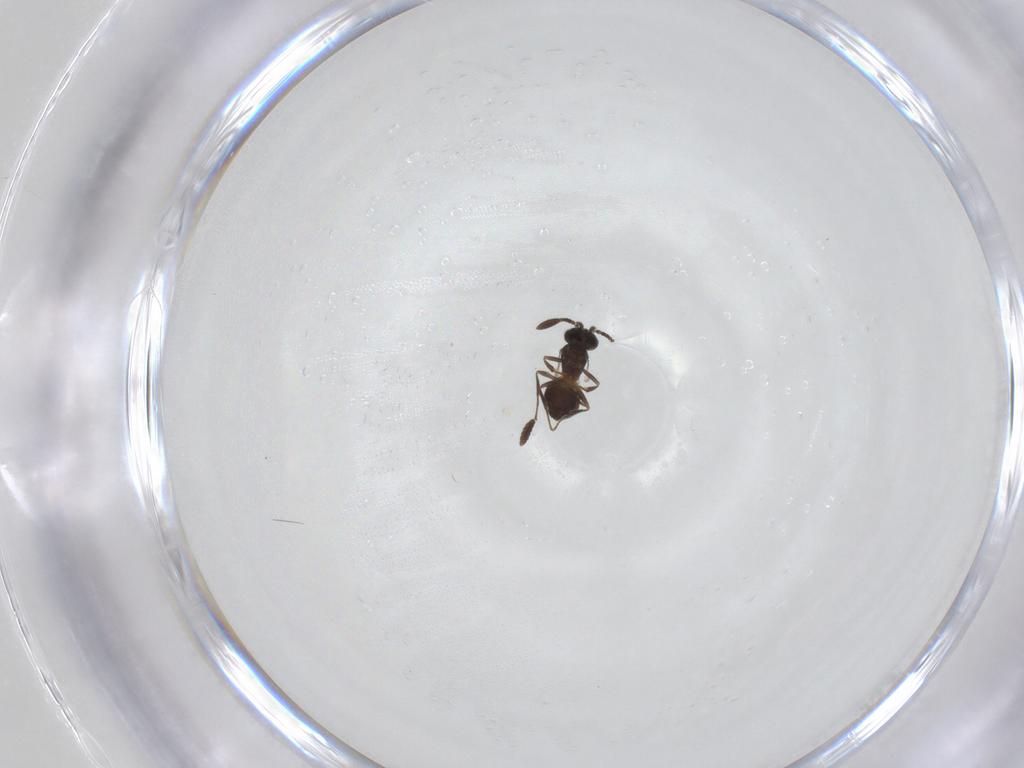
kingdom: Animalia
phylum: Arthropoda
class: Insecta
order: Hymenoptera
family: Scelionidae
